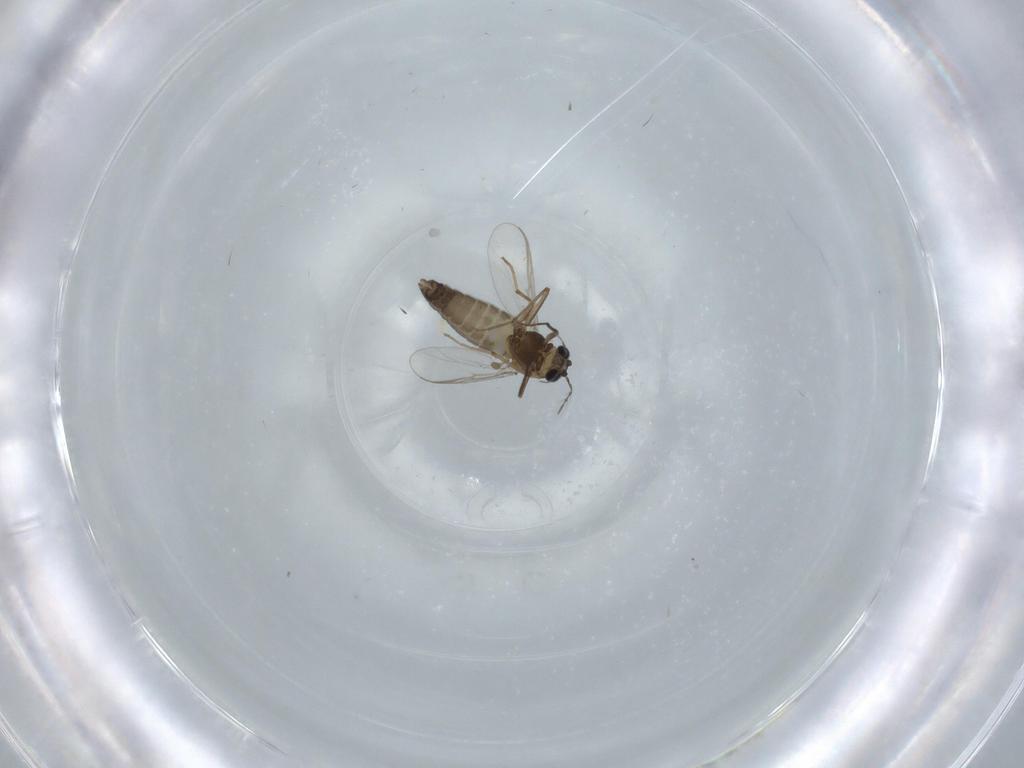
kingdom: Animalia
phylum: Arthropoda
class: Insecta
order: Diptera
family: Chironomidae
